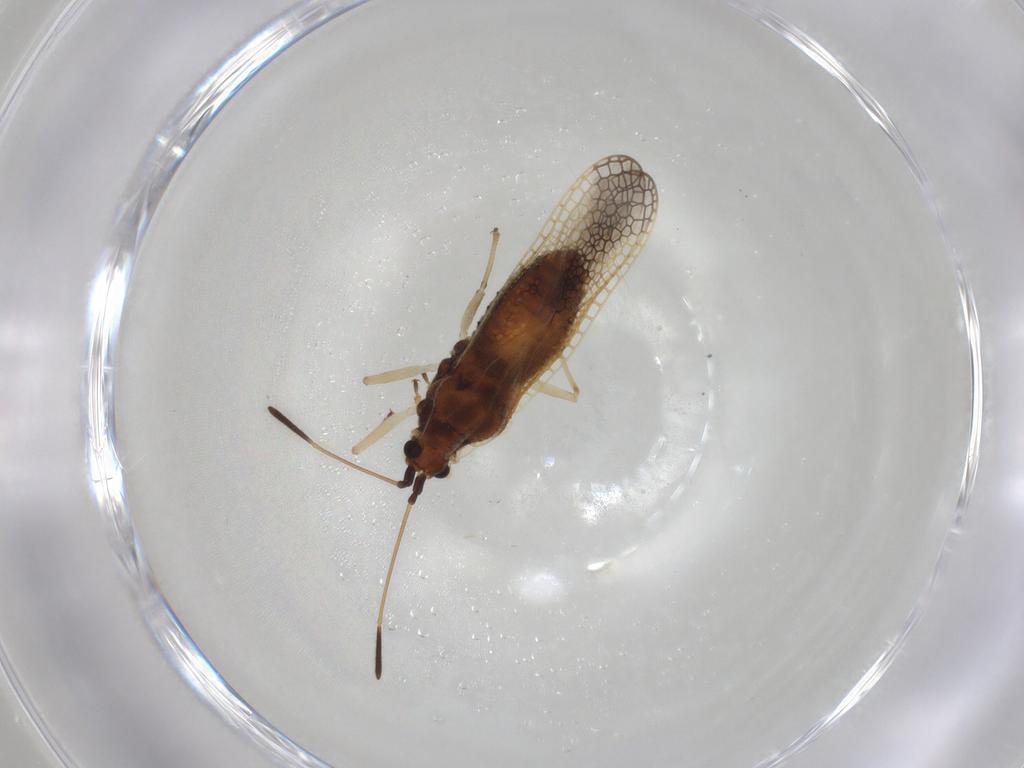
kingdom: Animalia
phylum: Arthropoda
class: Insecta
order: Hemiptera
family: Tingidae
